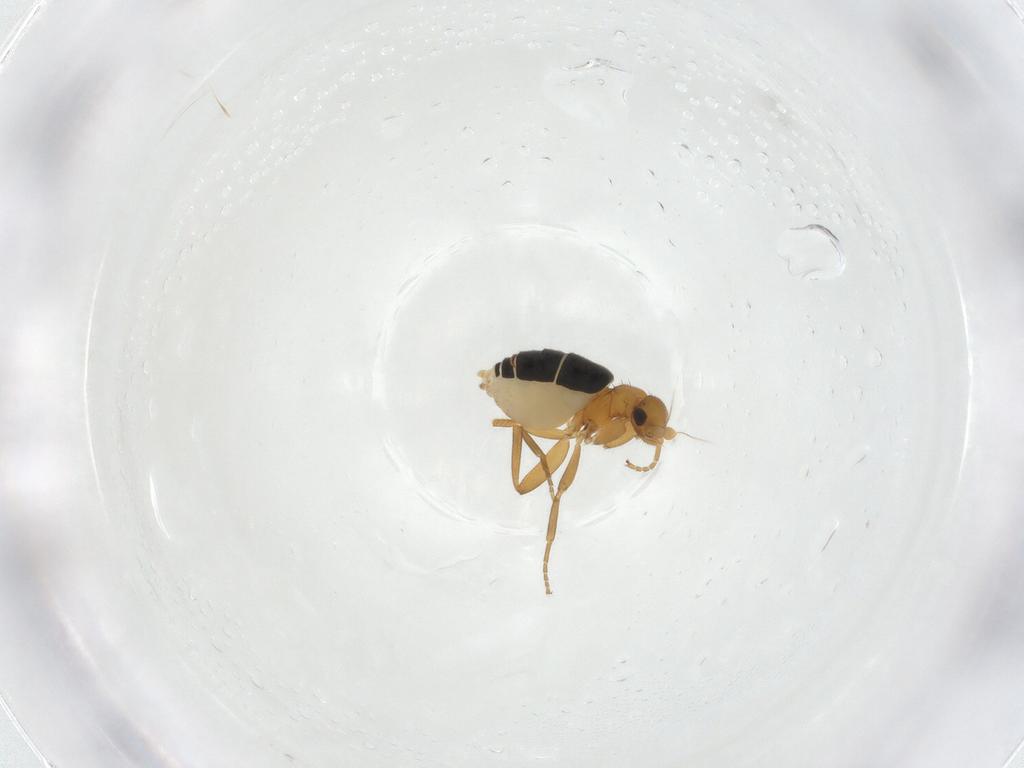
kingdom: Animalia
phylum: Arthropoda
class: Insecta
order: Diptera
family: Phoridae
